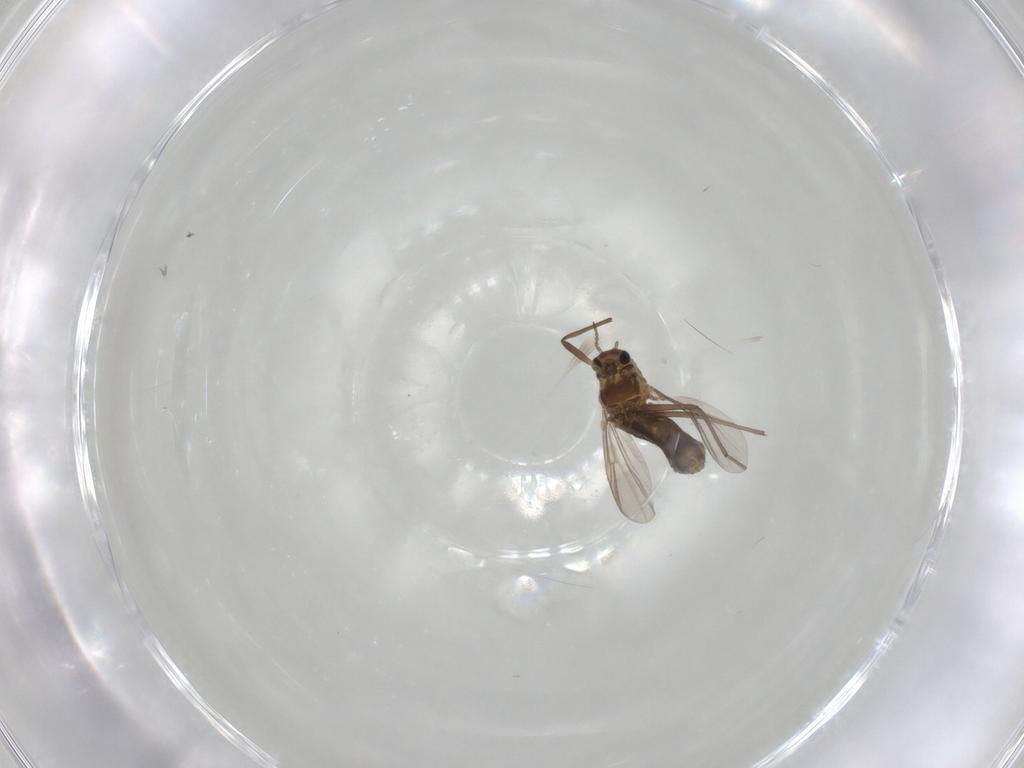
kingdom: Animalia
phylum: Arthropoda
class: Insecta
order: Diptera
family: Chironomidae
